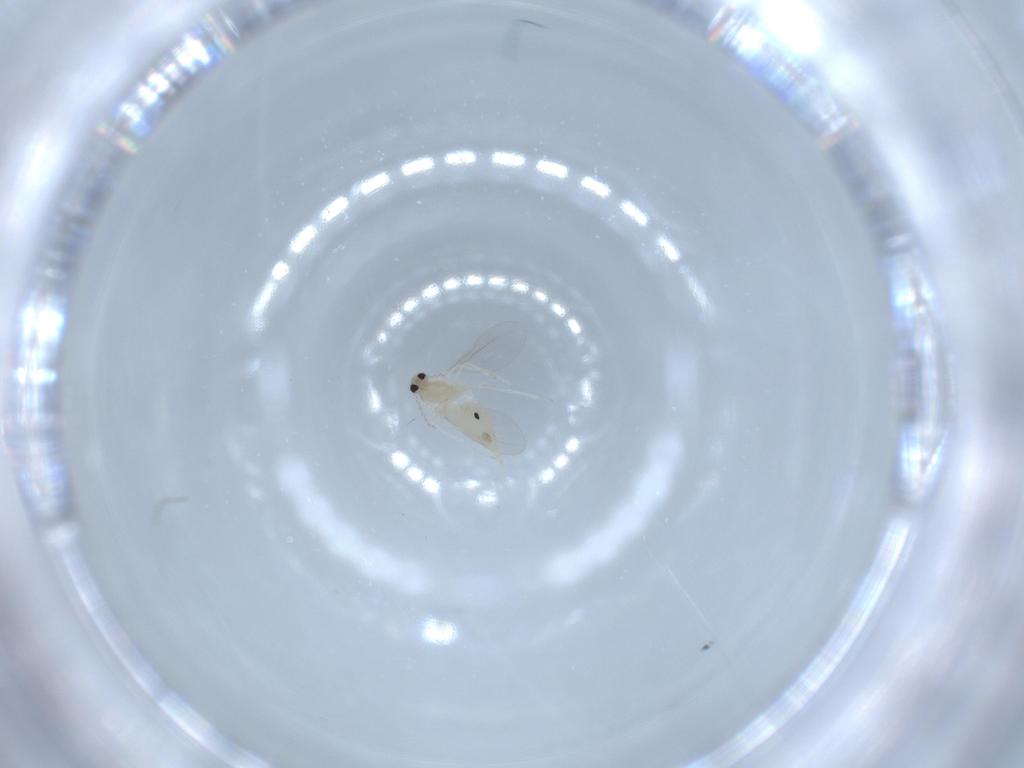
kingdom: Animalia
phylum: Arthropoda
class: Insecta
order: Diptera
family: Cecidomyiidae
